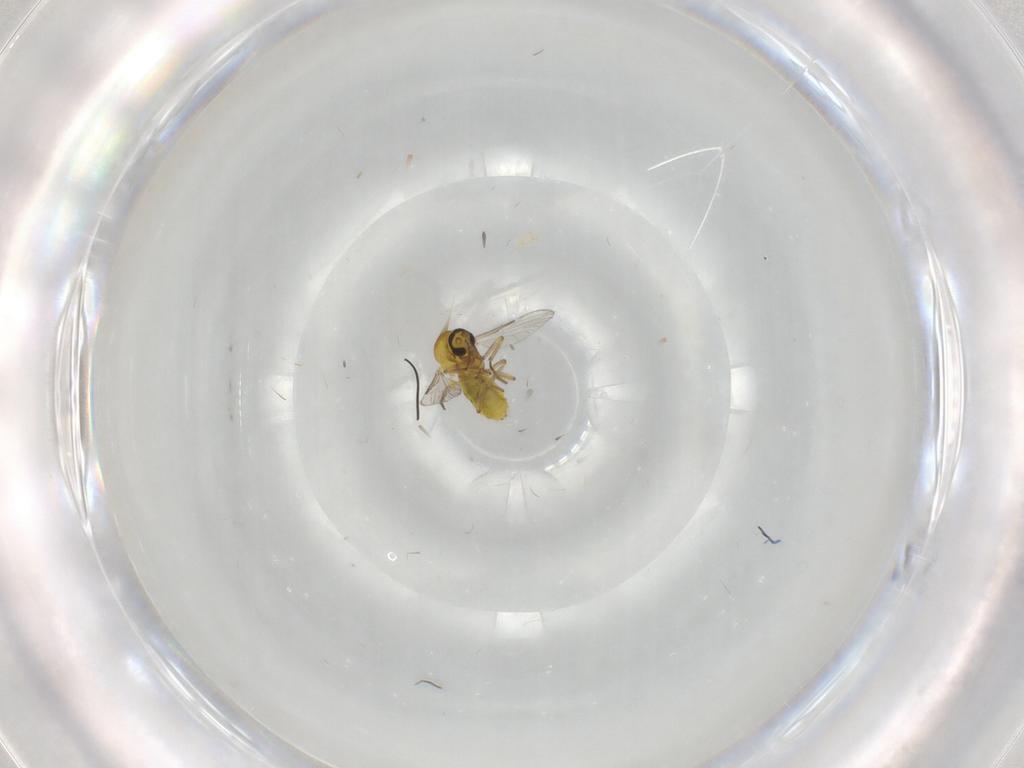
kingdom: Animalia
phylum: Arthropoda
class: Insecta
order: Diptera
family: Ceratopogonidae
